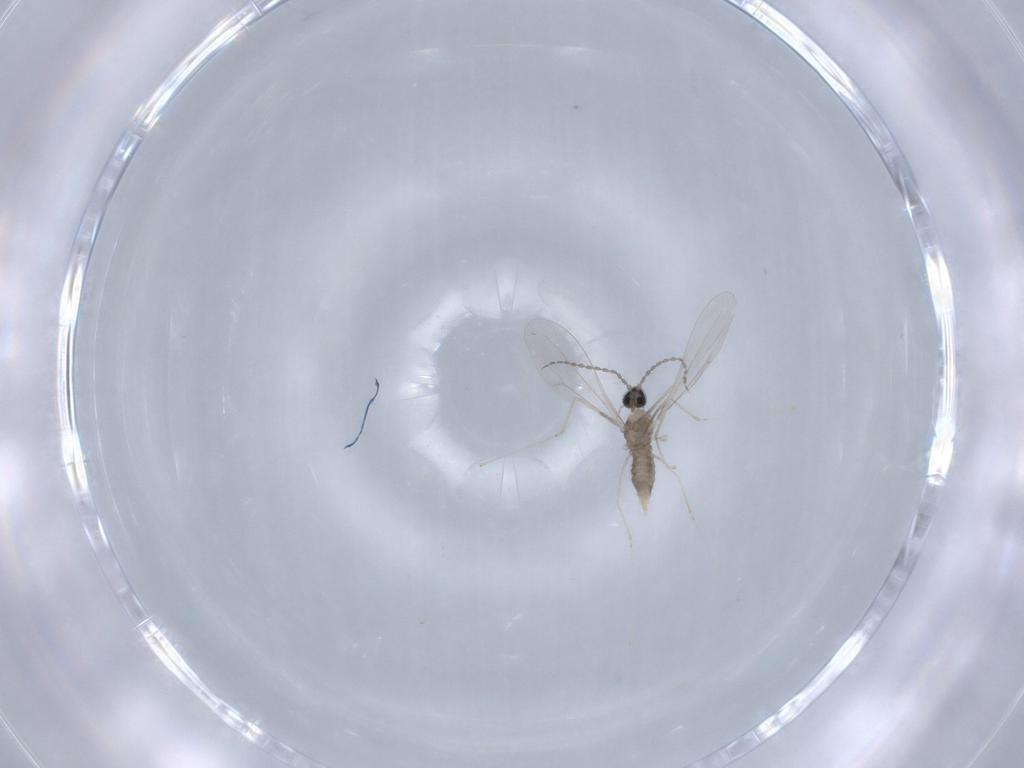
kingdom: Animalia
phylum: Arthropoda
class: Insecta
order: Diptera
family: Cecidomyiidae
